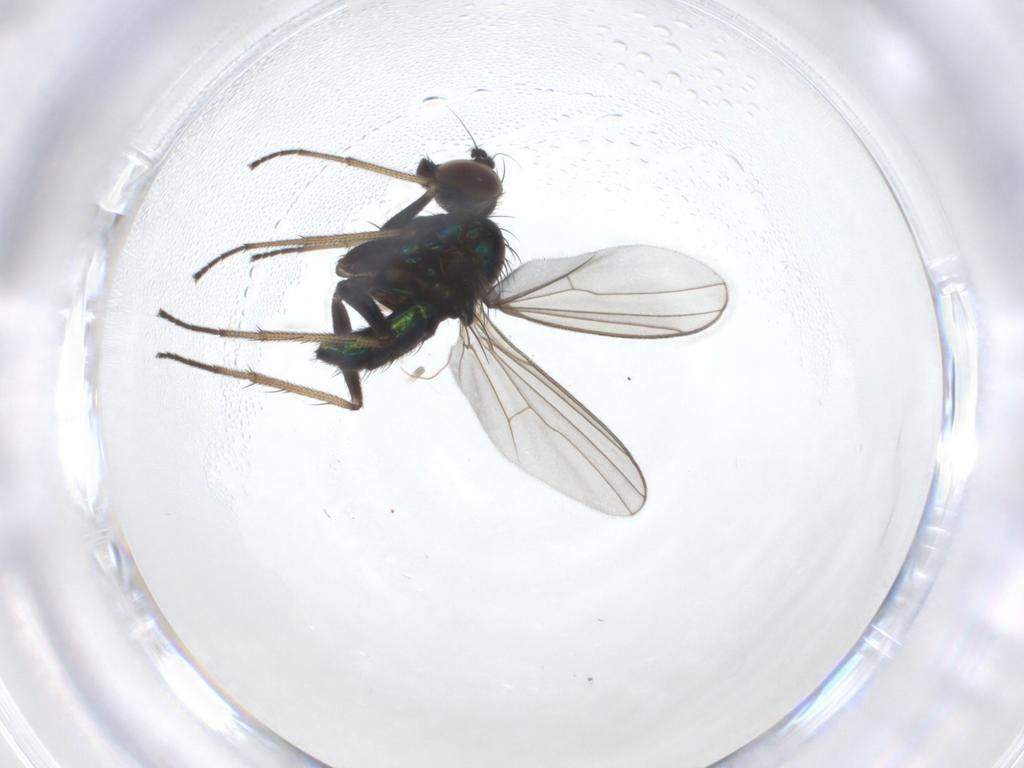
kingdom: Animalia
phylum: Arthropoda
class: Insecta
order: Diptera
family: Dolichopodidae
